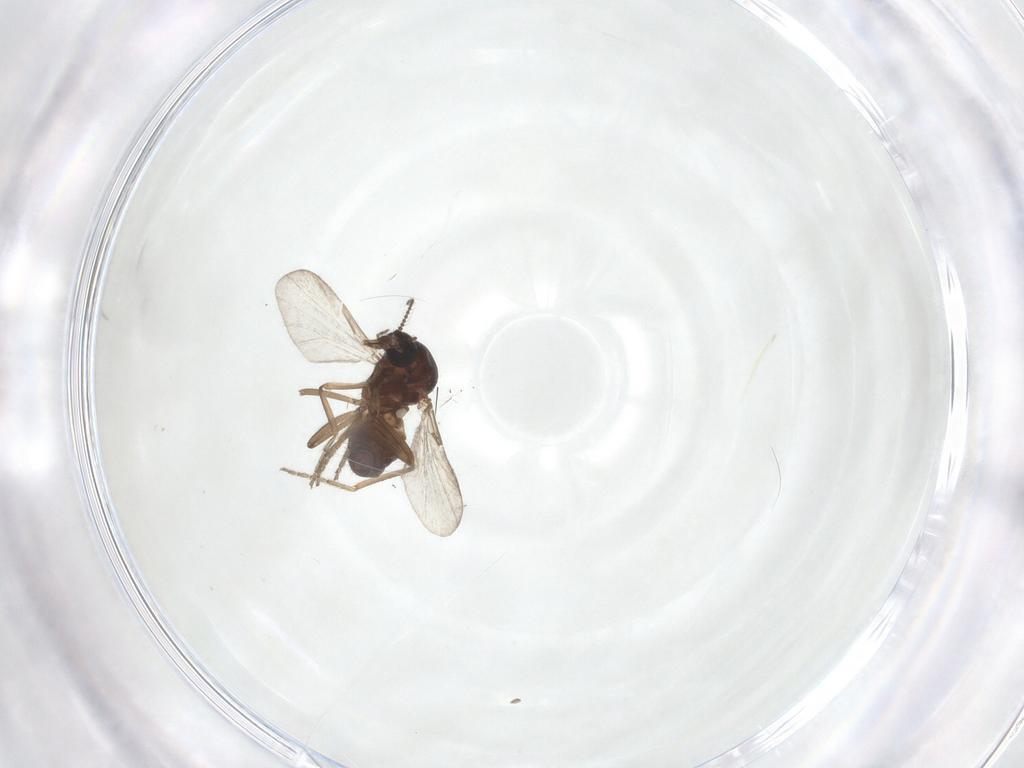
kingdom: Animalia
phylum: Arthropoda
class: Insecta
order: Diptera
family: Ceratopogonidae
